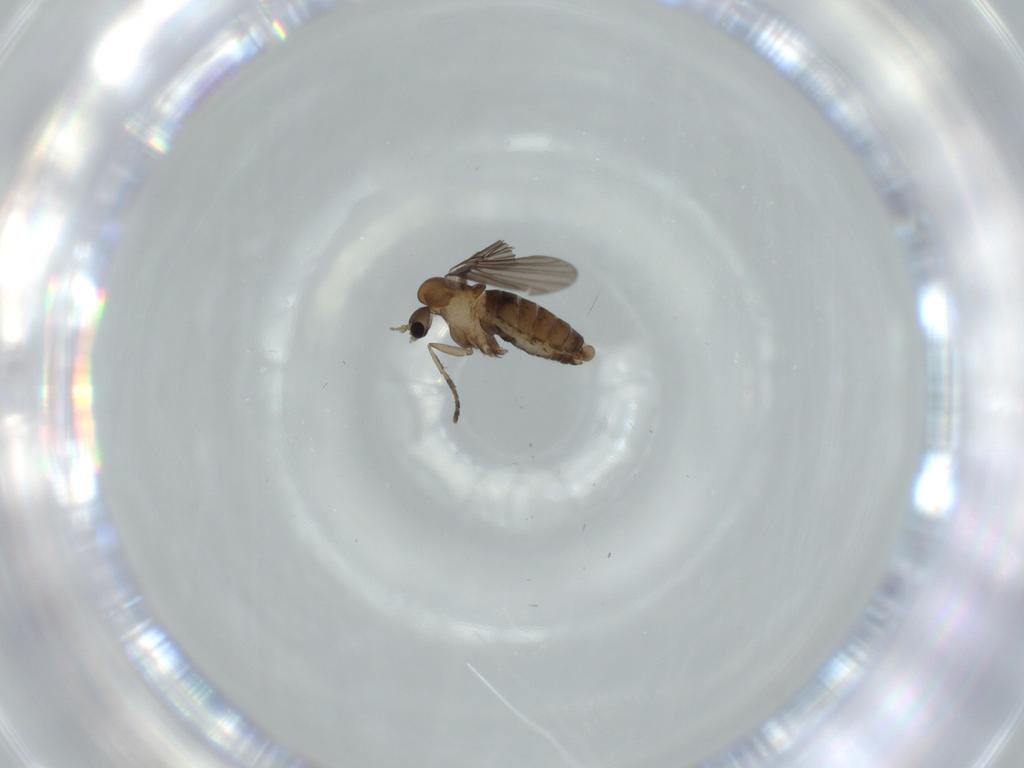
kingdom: Animalia
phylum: Arthropoda
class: Insecta
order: Diptera
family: Psychodidae
